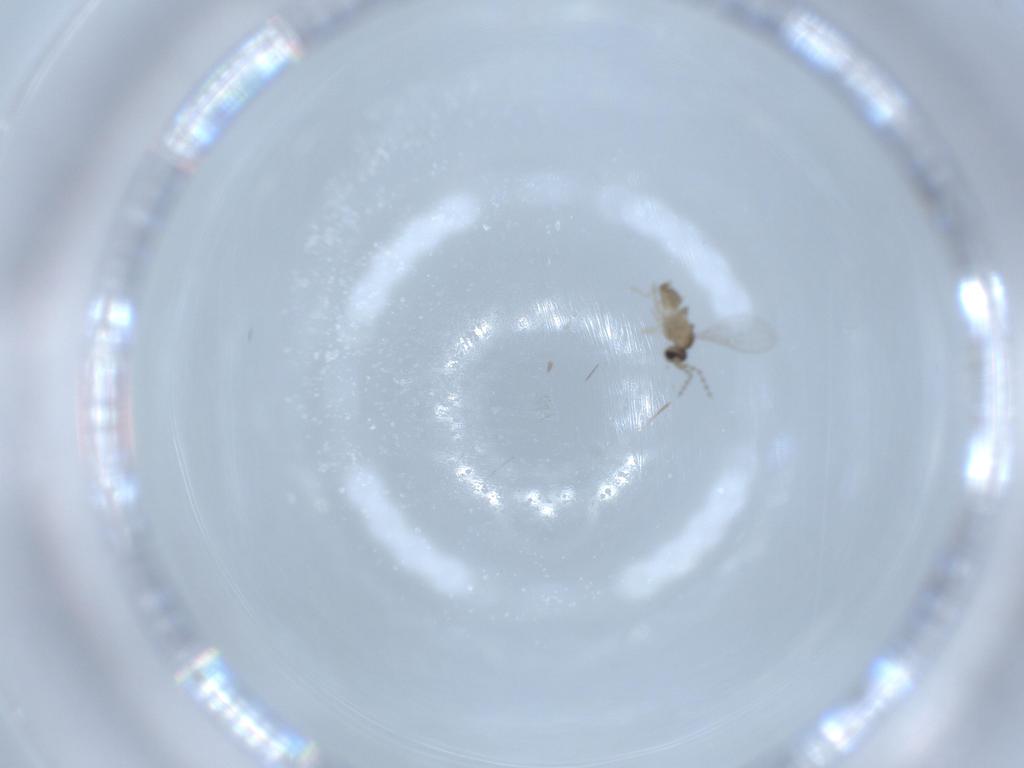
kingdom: Animalia
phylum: Arthropoda
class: Insecta
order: Diptera
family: Cecidomyiidae
